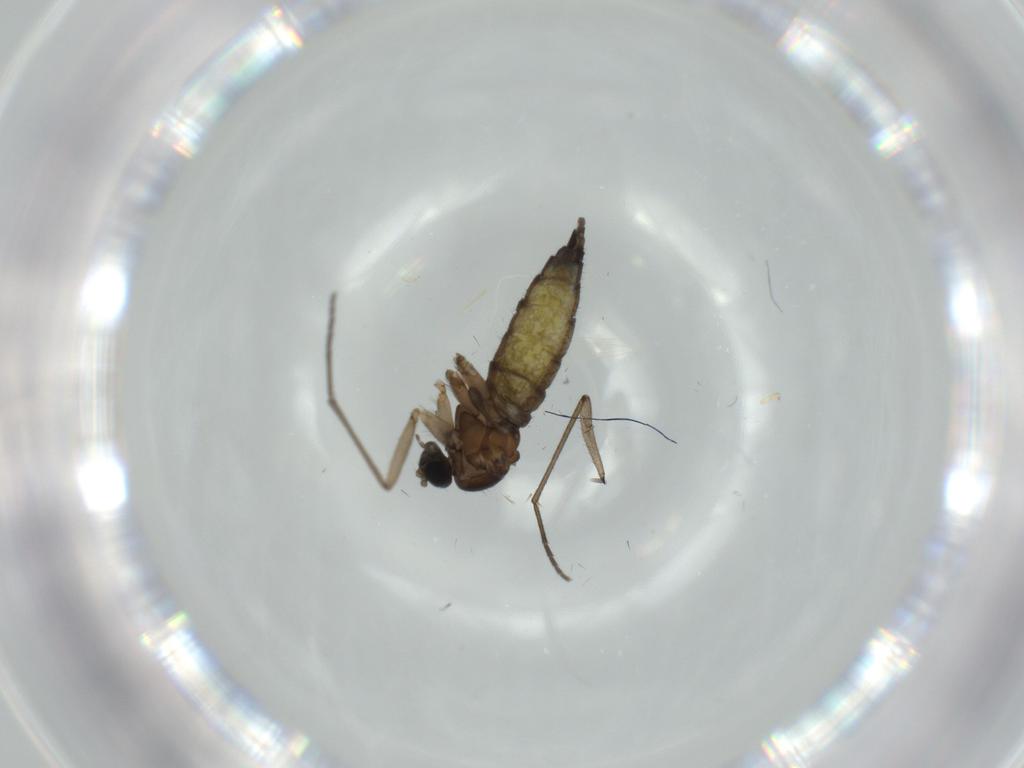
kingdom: Animalia
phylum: Arthropoda
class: Insecta
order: Diptera
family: Sciaridae
